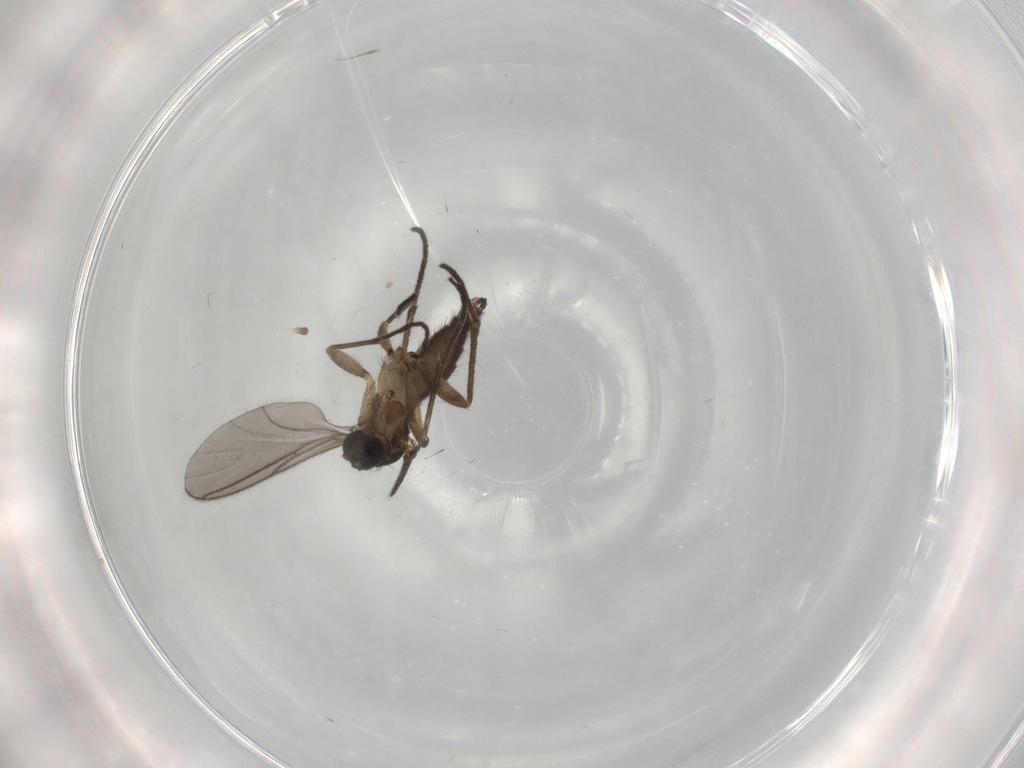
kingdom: Animalia
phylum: Arthropoda
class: Insecta
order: Diptera
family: Sciaridae
